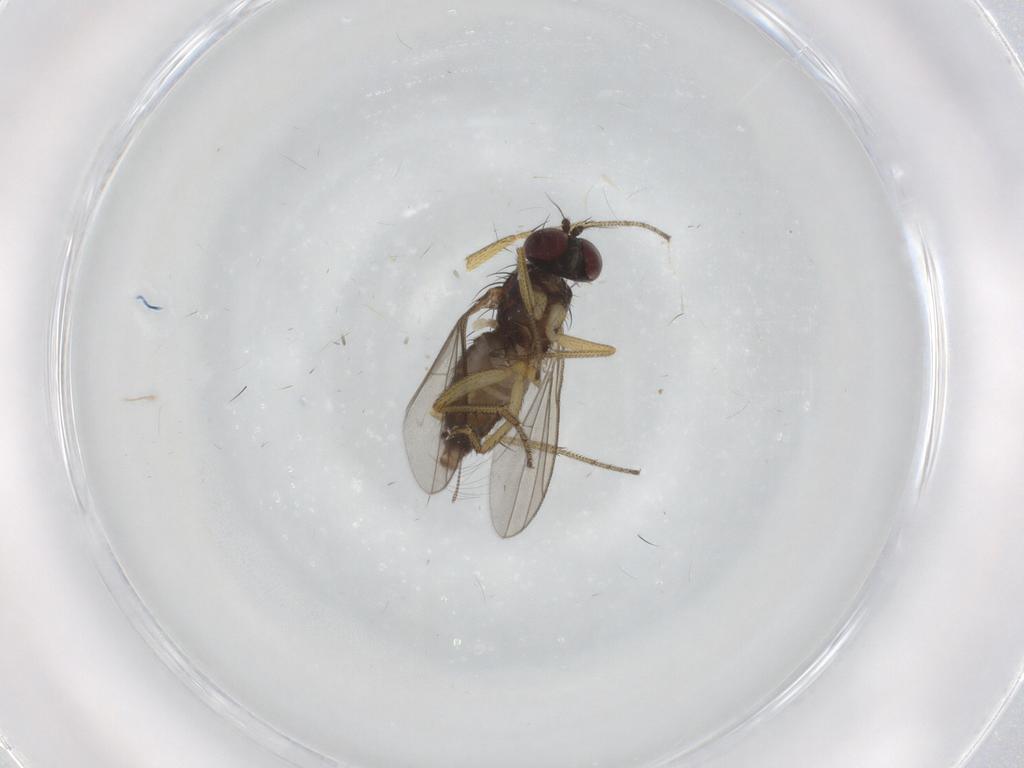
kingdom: Animalia
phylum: Arthropoda
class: Insecta
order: Diptera
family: Dolichopodidae
